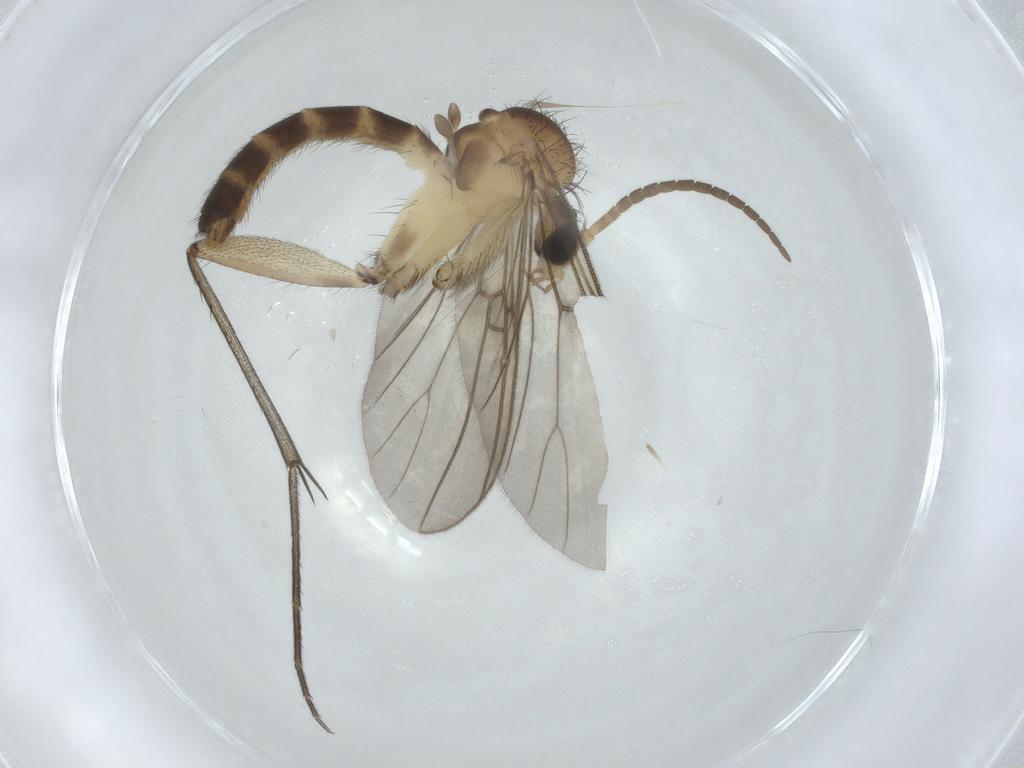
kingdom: Animalia
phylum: Arthropoda
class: Insecta
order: Diptera
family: Mycetophilidae
